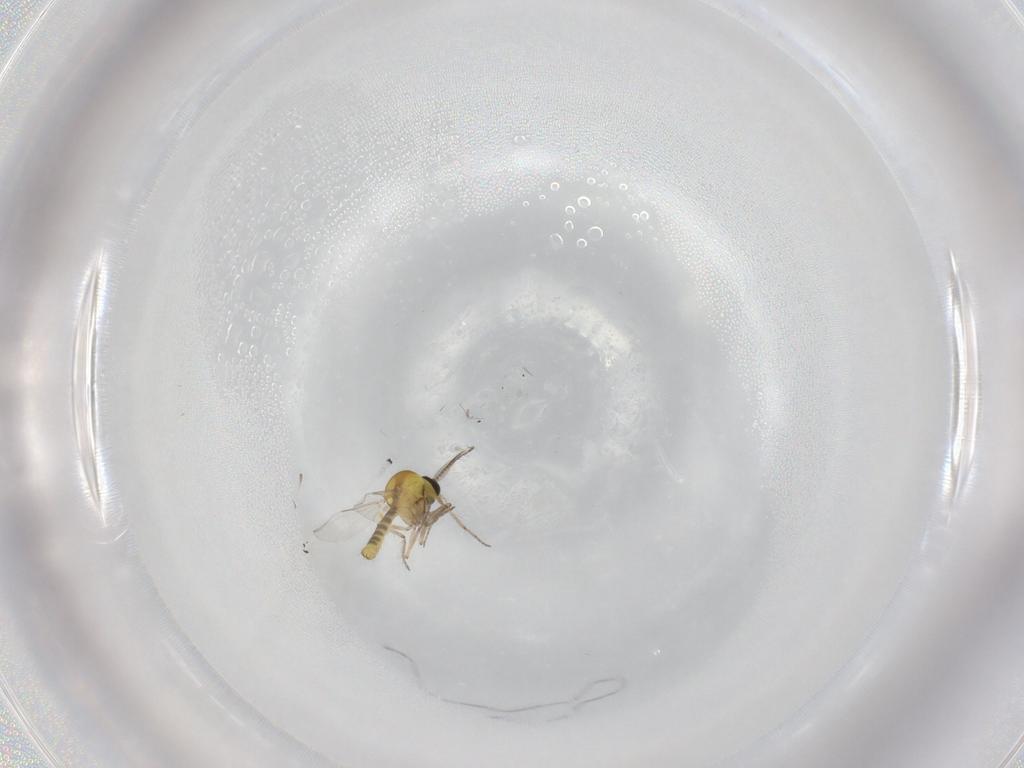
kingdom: Animalia
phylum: Arthropoda
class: Insecta
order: Diptera
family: Ceratopogonidae
